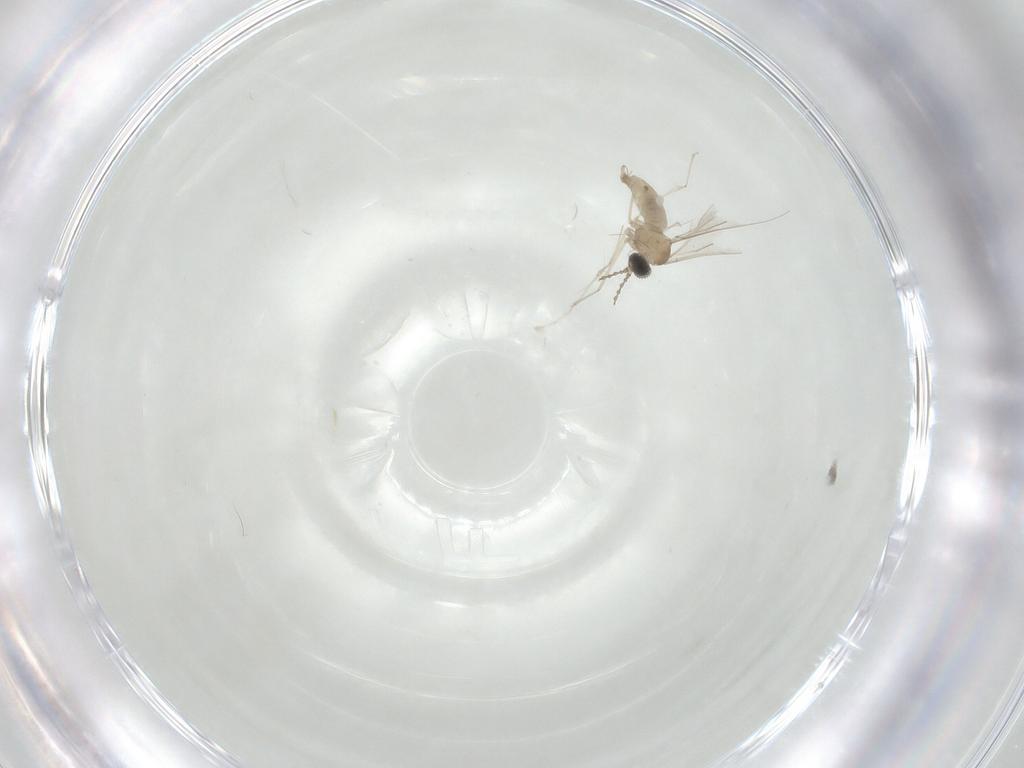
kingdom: Animalia
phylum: Arthropoda
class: Insecta
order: Diptera
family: Cecidomyiidae
